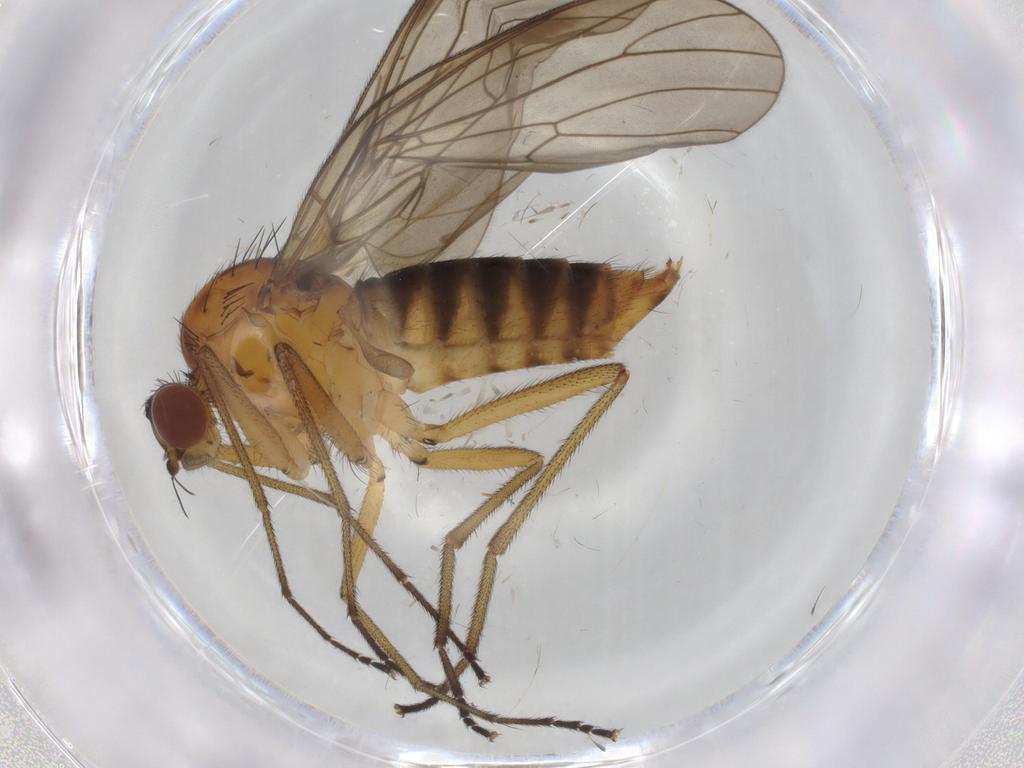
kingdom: Animalia
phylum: Arthropoda
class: Insecta
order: Diptera
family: Brachystomatidae
